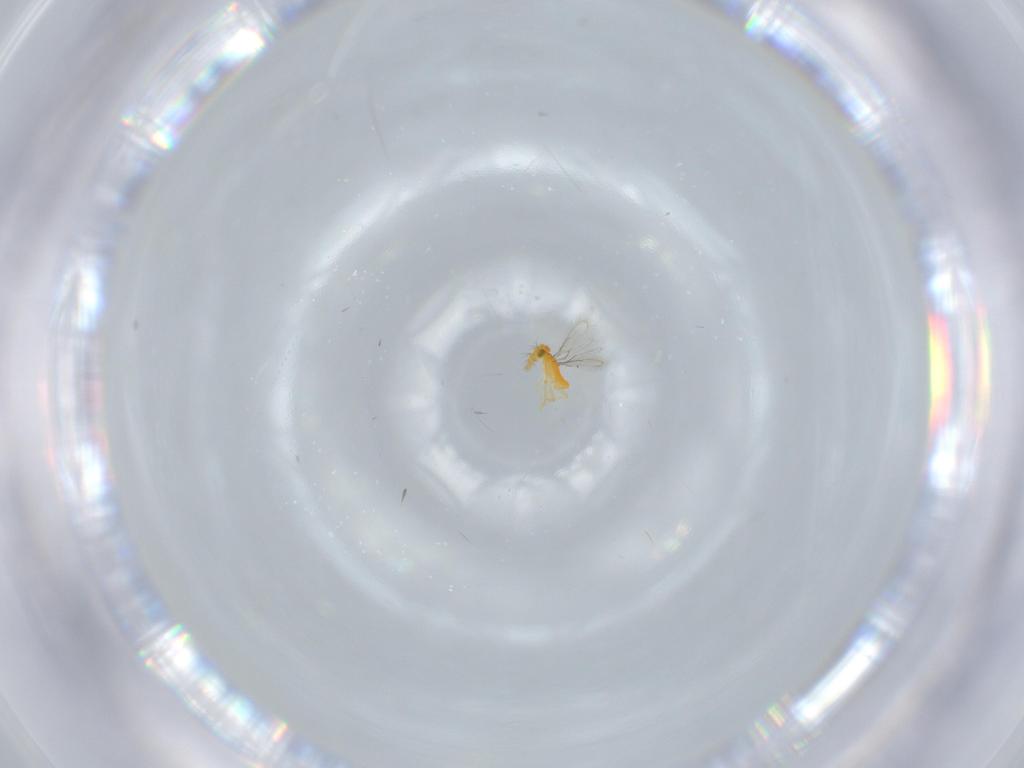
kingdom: Animalia
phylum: Arthropoda
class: Insecta
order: Hymenoptera
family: Aphelinidae
